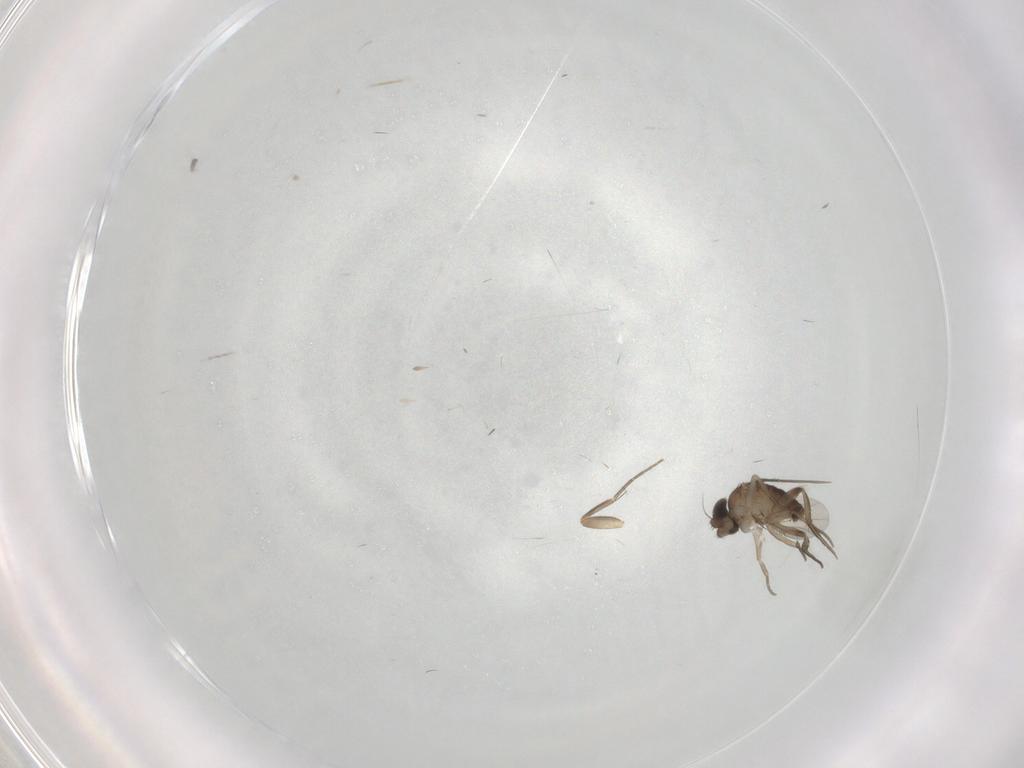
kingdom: Animalia
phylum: Arthropoda
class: Insecta
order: Diptera
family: Phoridae
